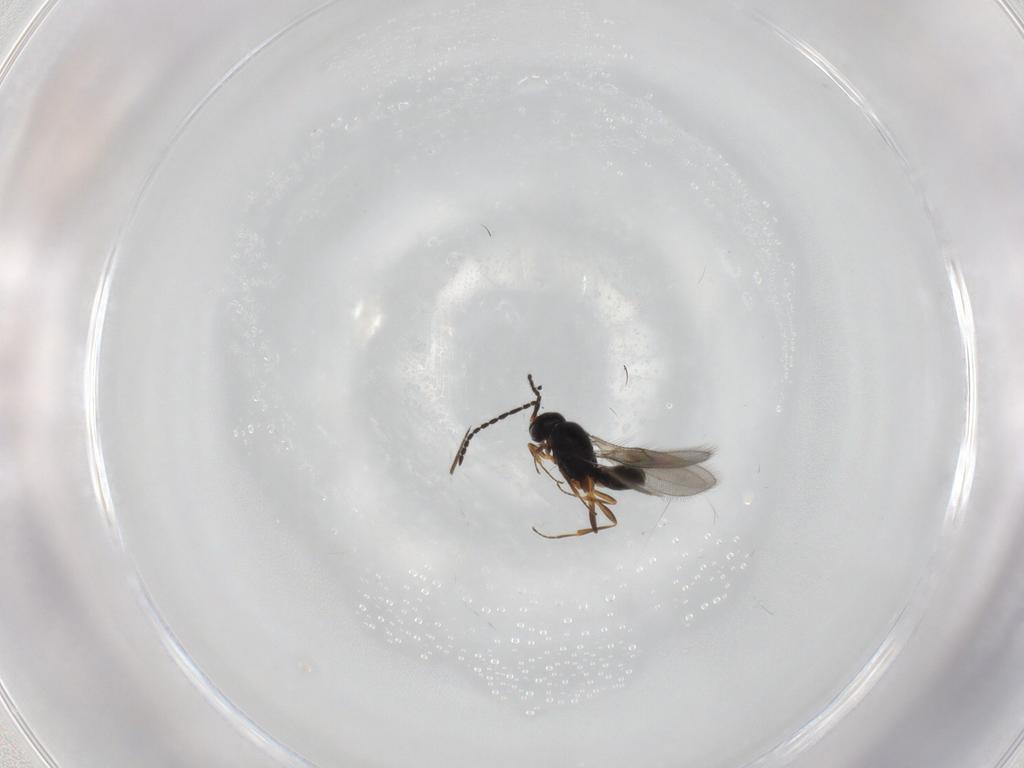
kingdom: Animalia
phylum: Arthropoda
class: Insecta
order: Hymenoptera
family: Scelionidae
